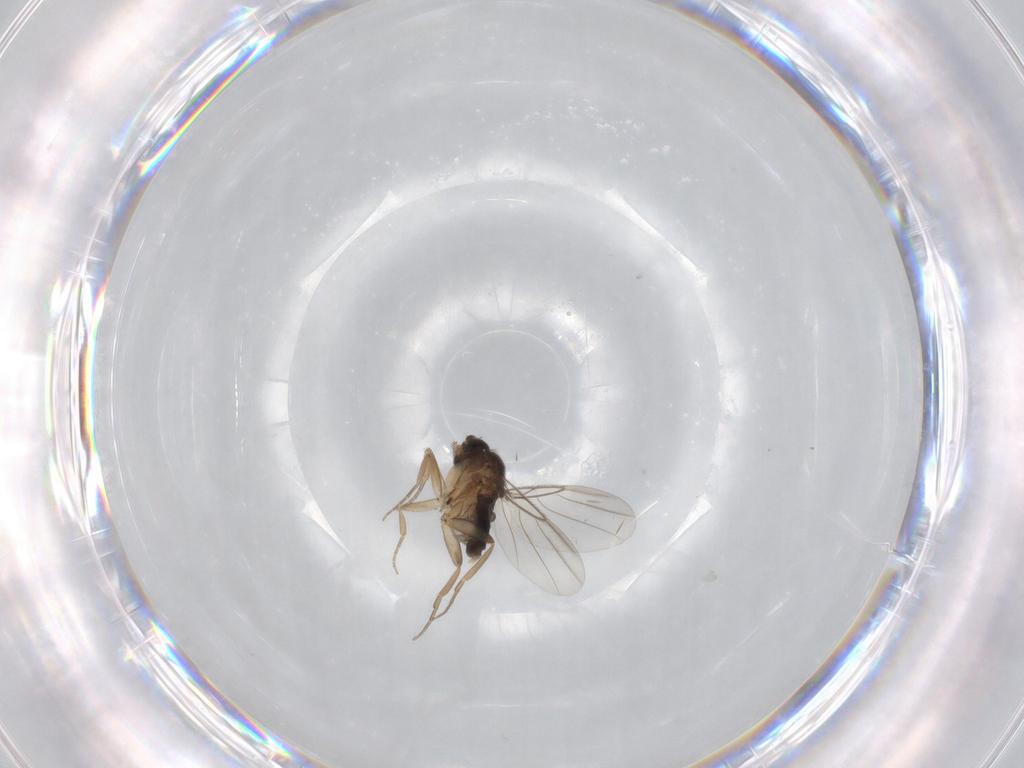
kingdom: Animalia
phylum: Arthropoda
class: Insecta
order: Diptera
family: Phoridae
